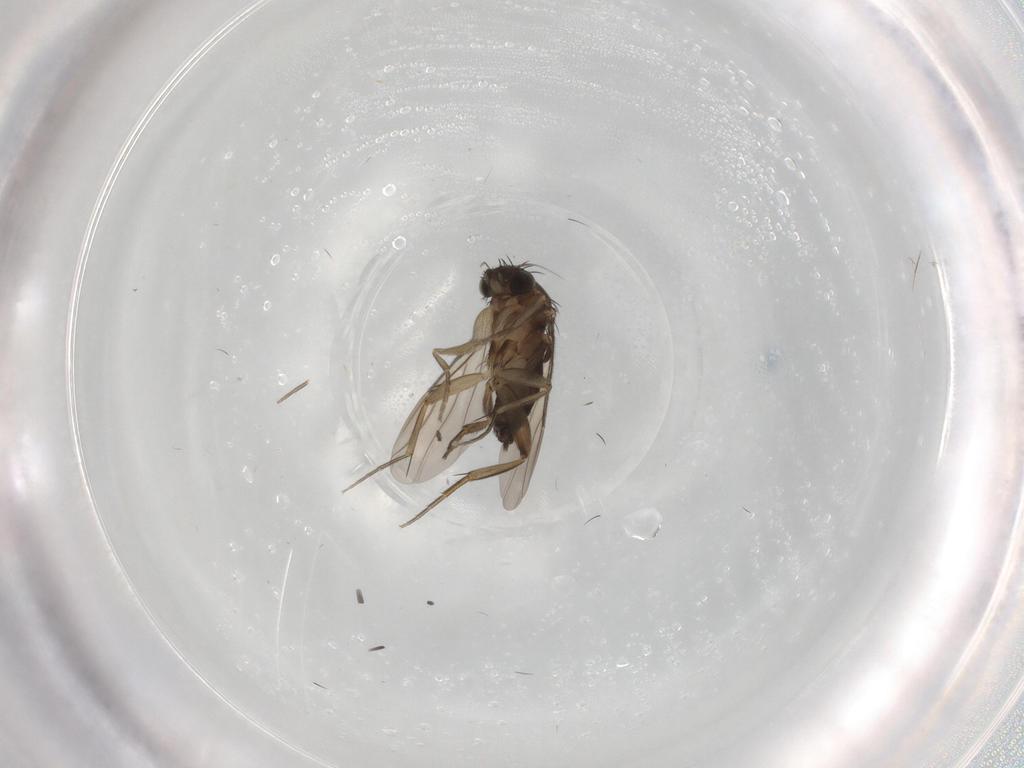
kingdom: Animalia
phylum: Arthropoda
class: Insecta
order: Diptera
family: Phoridae
